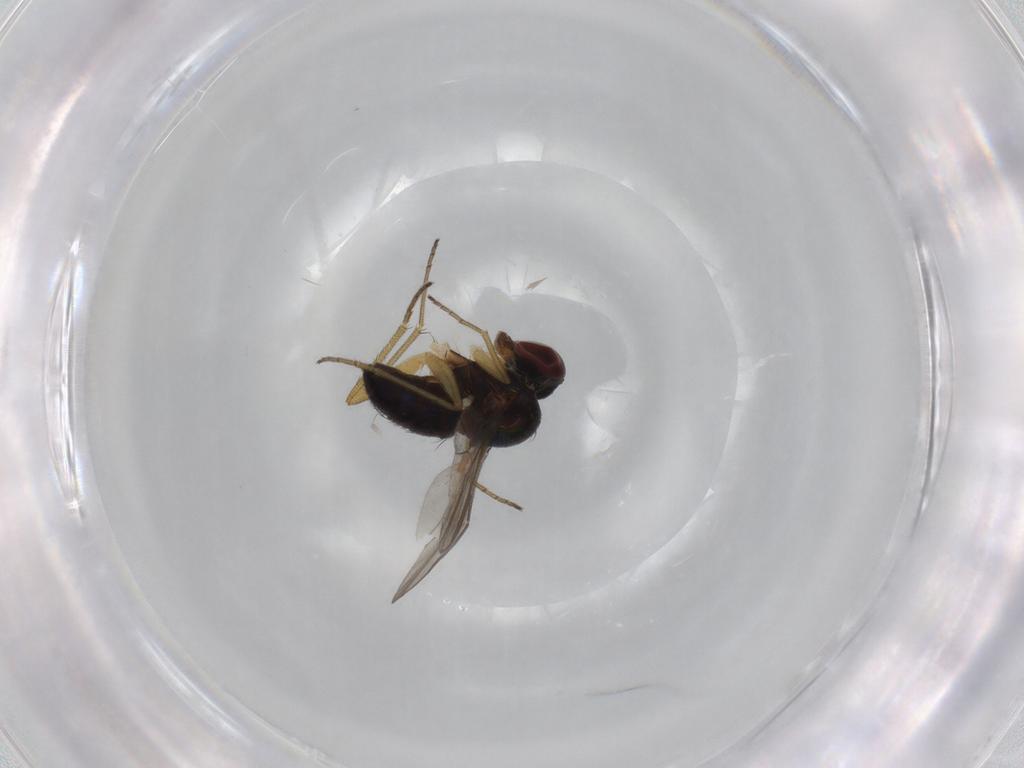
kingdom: Animalia
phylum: Arthropoda
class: Insecta
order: Diptera
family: Dolichopodidae
